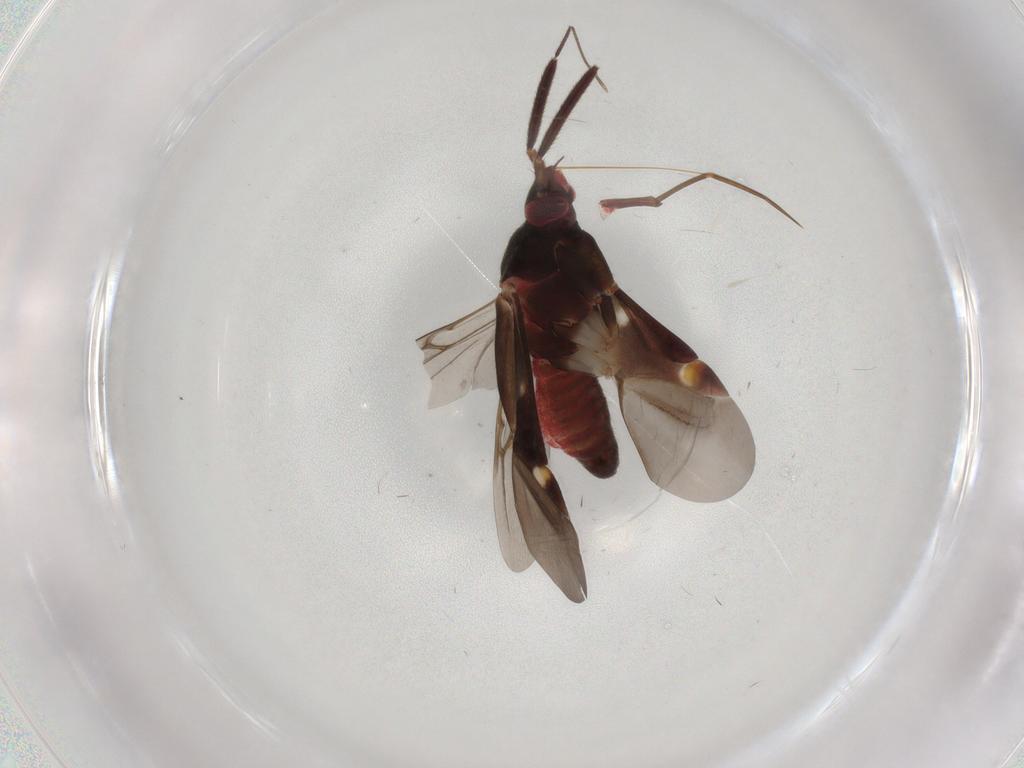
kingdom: Animalia
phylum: Arthropoda
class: Insecta
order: Hemiptera
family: Miridae
